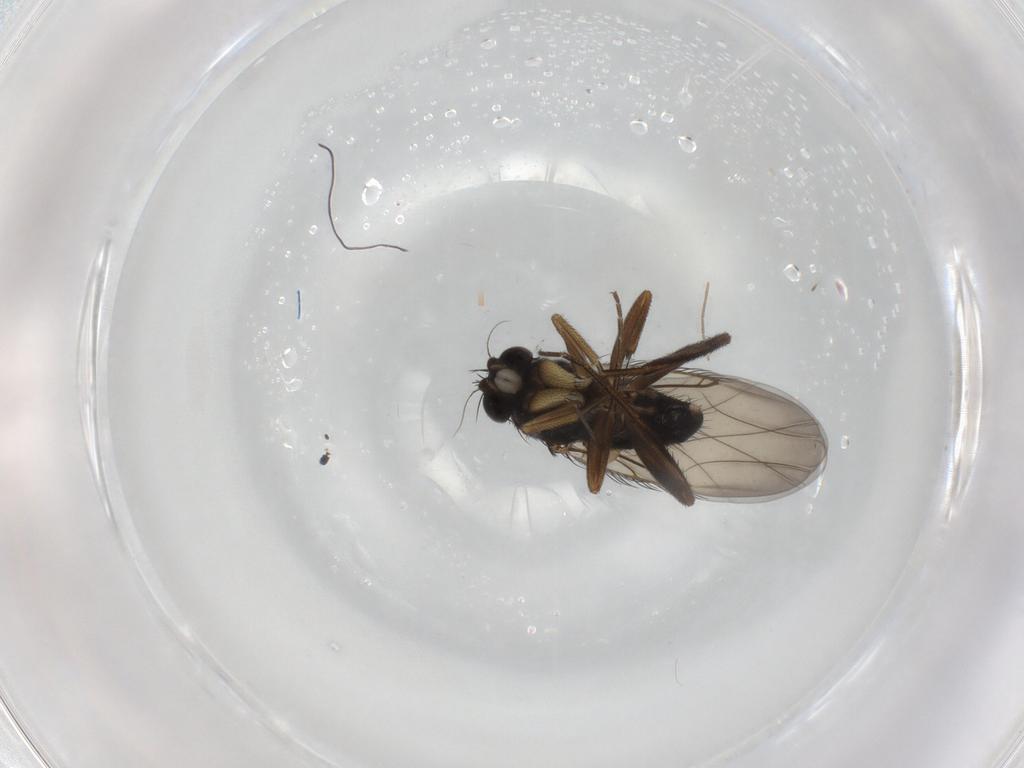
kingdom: Animalia
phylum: Arthropoda
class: Insecta
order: Diptera
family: Phoridae
